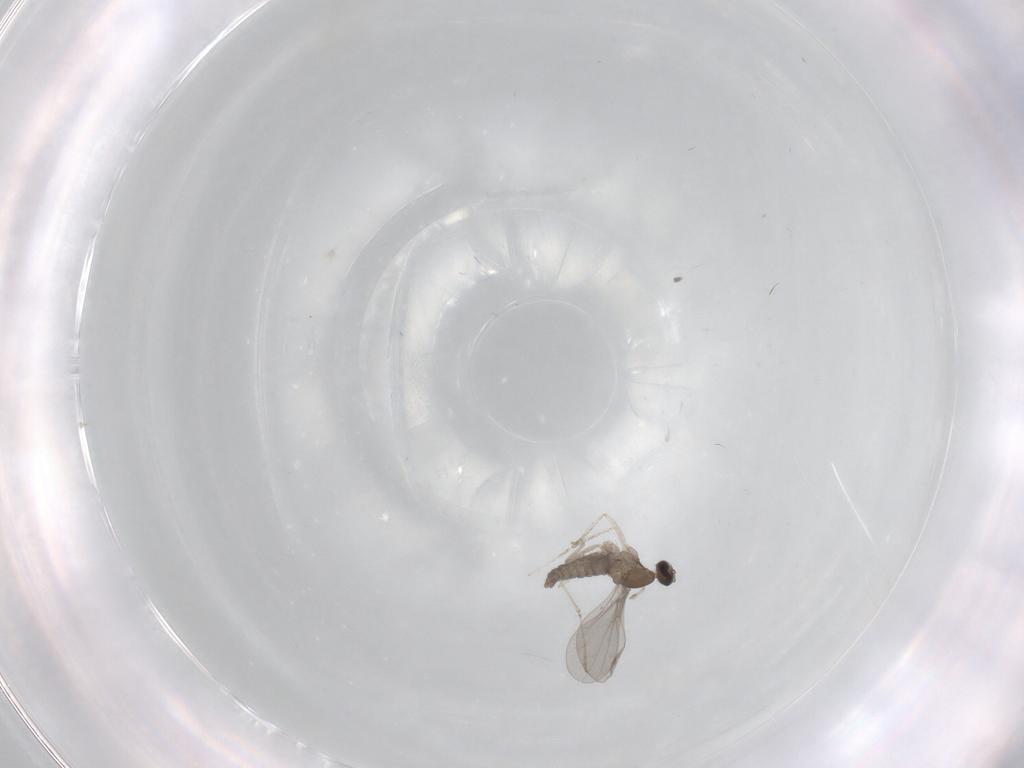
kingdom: Animalia
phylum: Arthropoda
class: Insecta
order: Diptera
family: Cecidomyiidae
